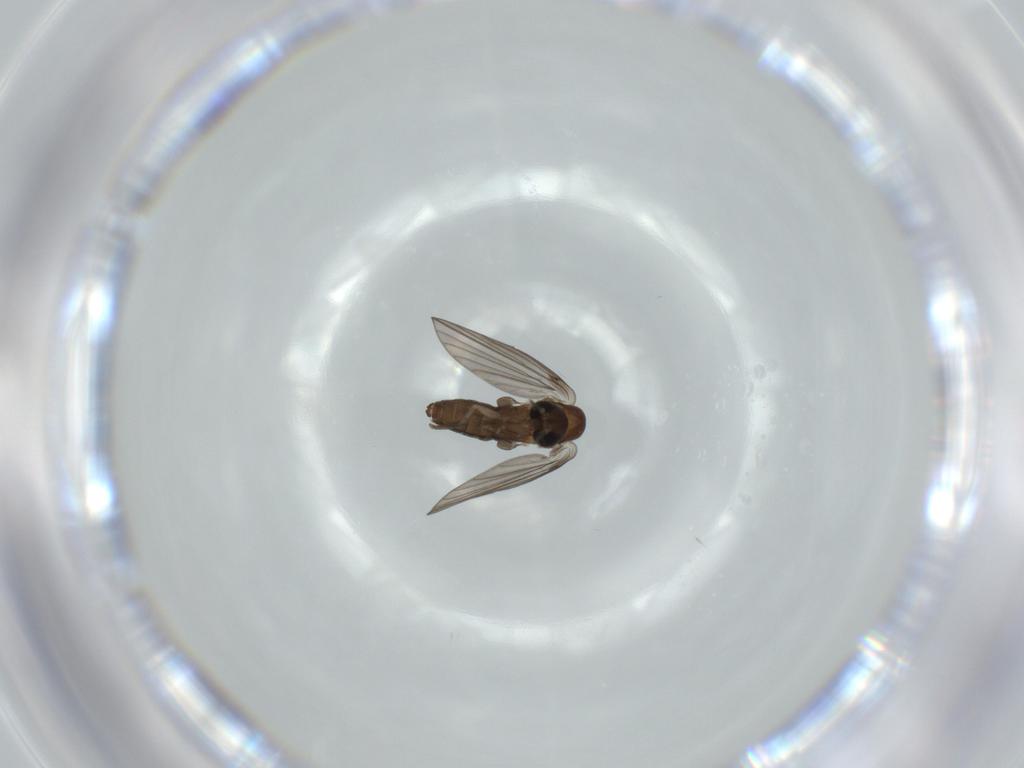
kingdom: Animalia
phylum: Arthropoda
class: Insecta
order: Diptera
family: Psychodidae
